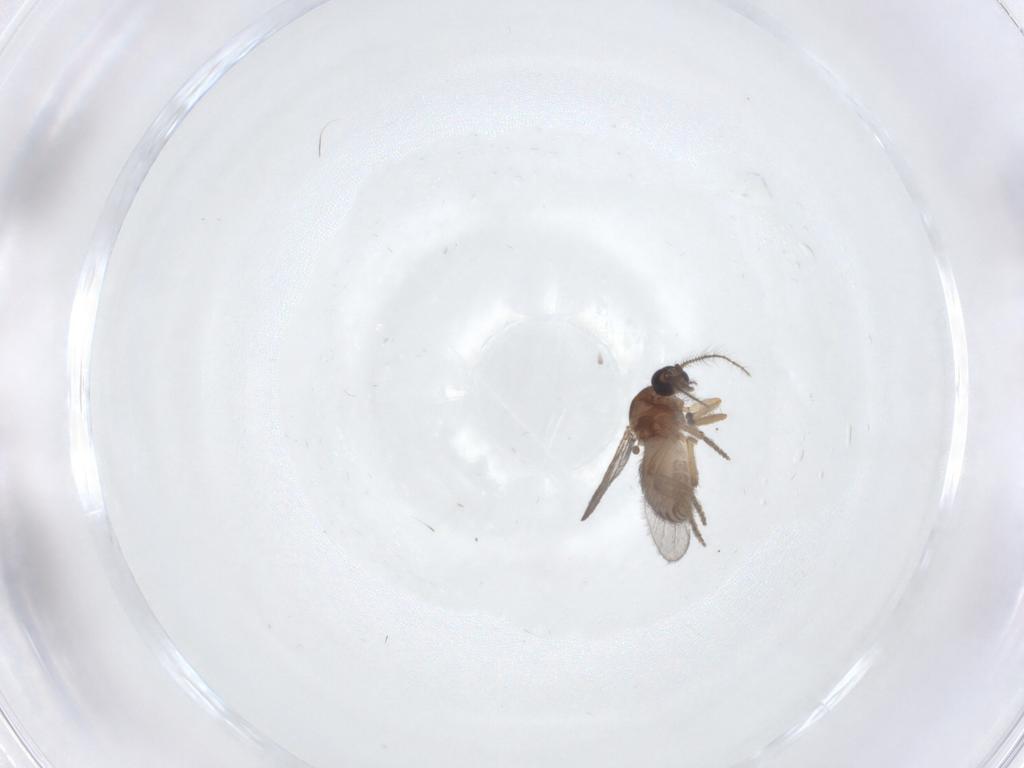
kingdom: Animalia
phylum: Arthropoda
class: Insecta
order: Diptera
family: Ceratopogonidae
